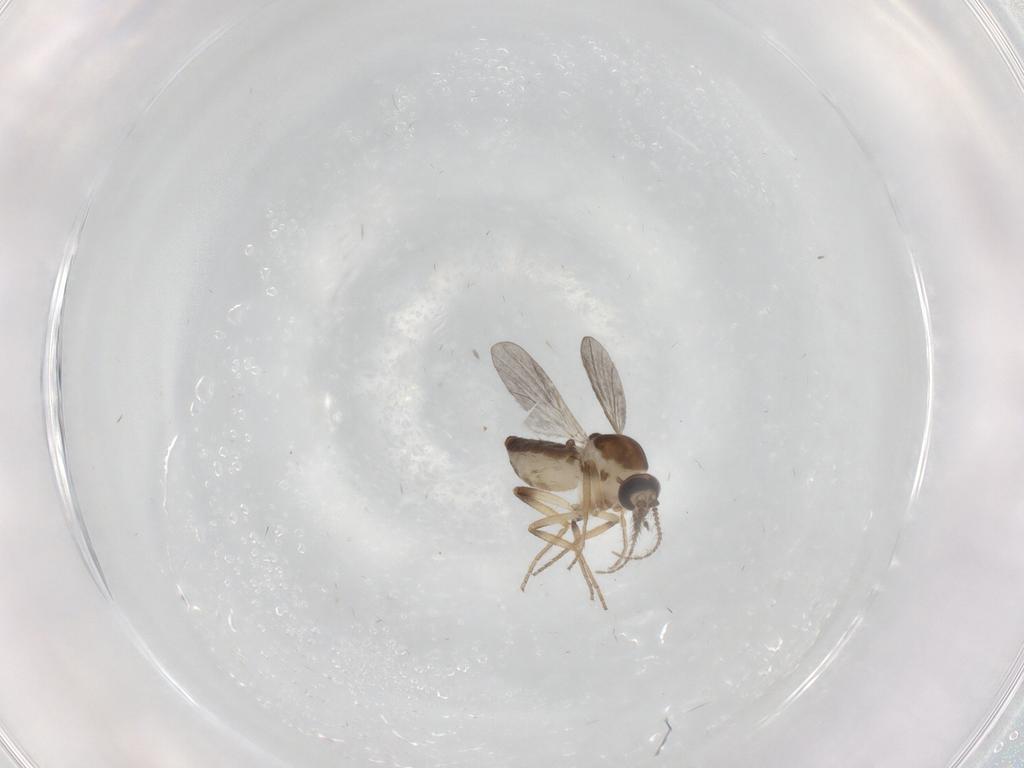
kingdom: Animalia
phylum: Arthropoda
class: Insecta
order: Diptera
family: Ceratopogonidae
